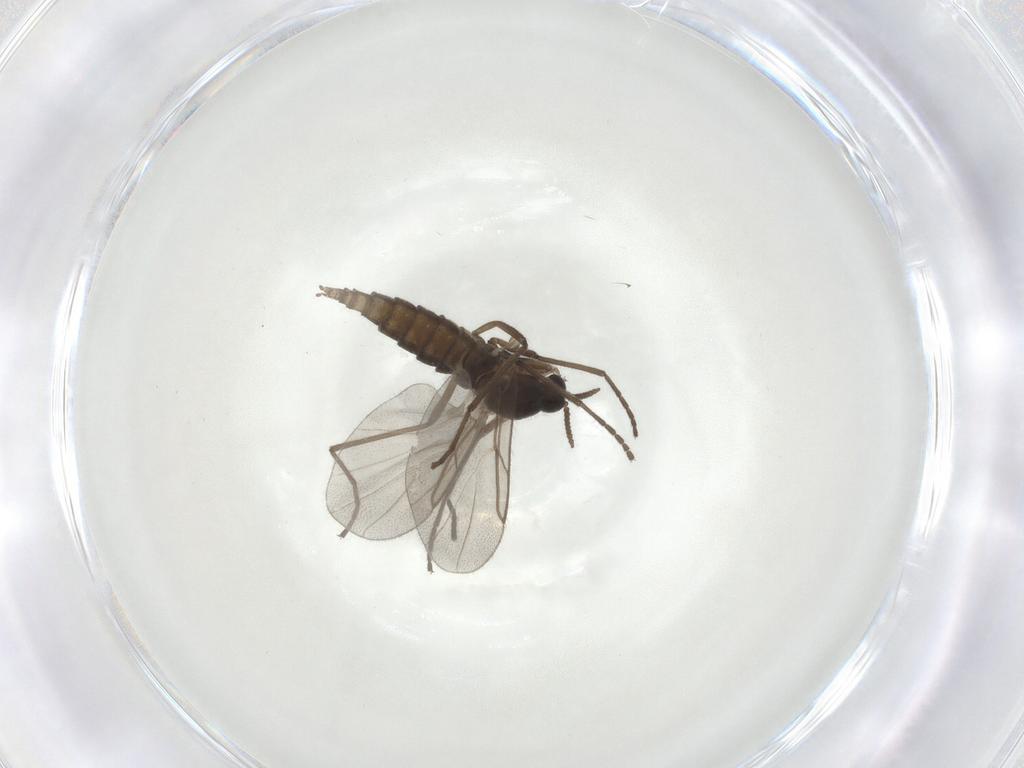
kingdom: Animalia
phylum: Arthropoda
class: Insecta
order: Diptera
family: Cecidomyiidae
